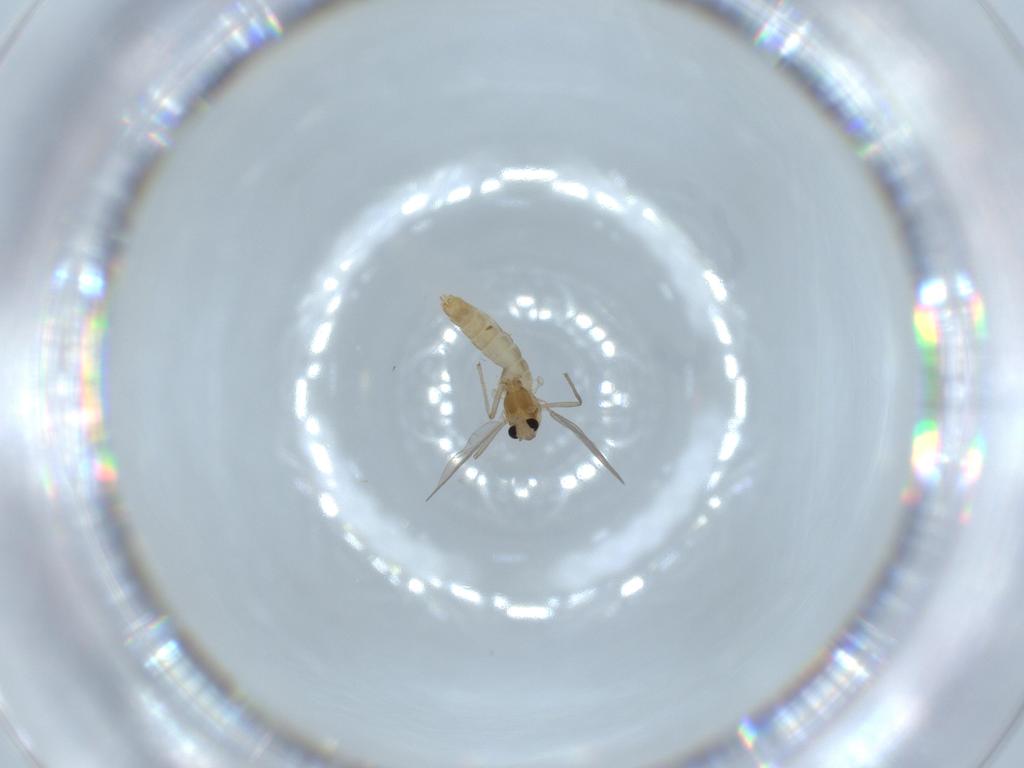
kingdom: Animalia
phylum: Arthropoda
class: Insecta
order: Diptera
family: Chironomidae
